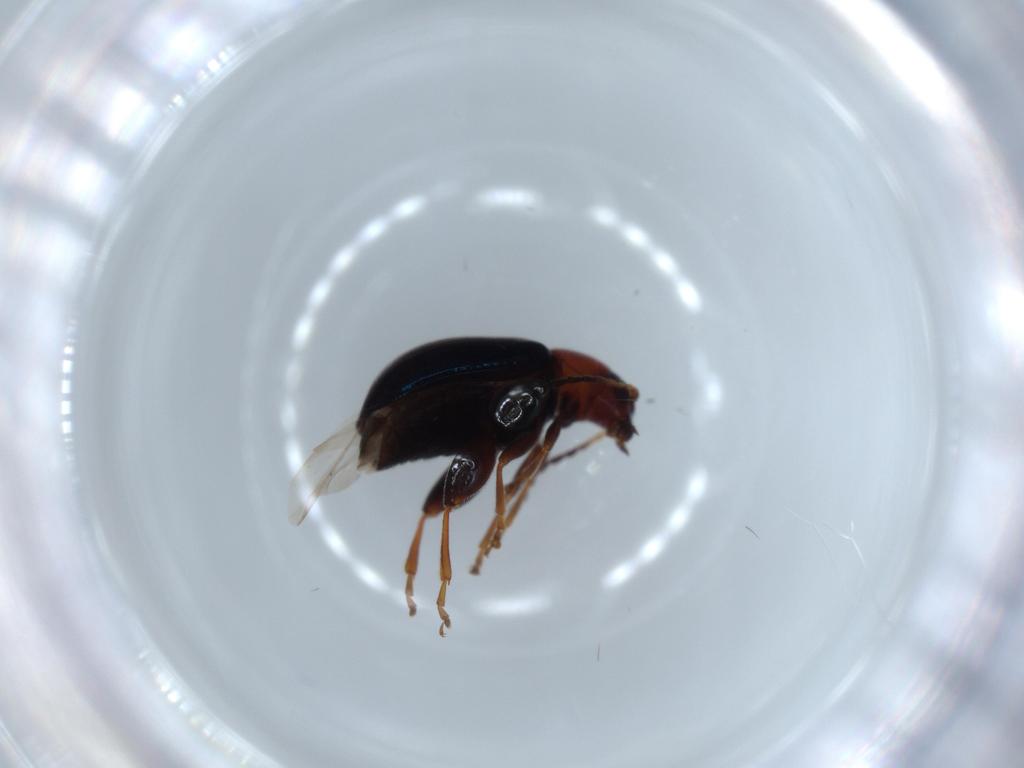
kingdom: Animalia
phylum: Arthropoda
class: Insecta
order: Coleoptera
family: Chrysomelidae
